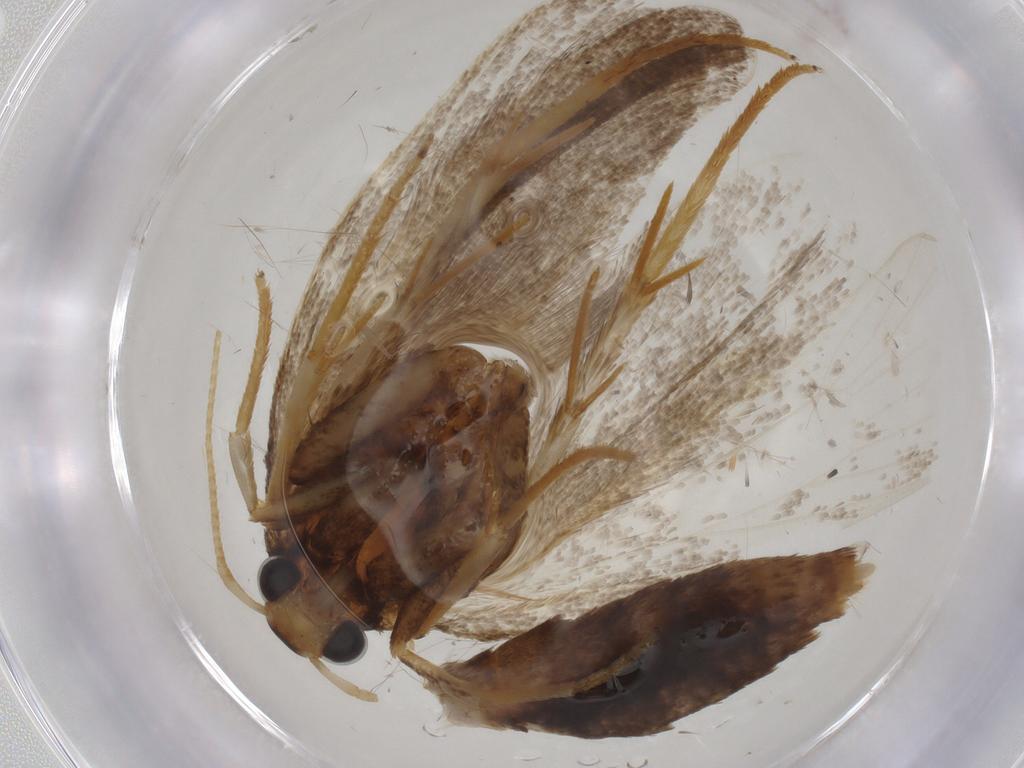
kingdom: Animalia
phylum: Arthropoda
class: Insecta
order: Lepidoptera
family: Lecithoceridae
